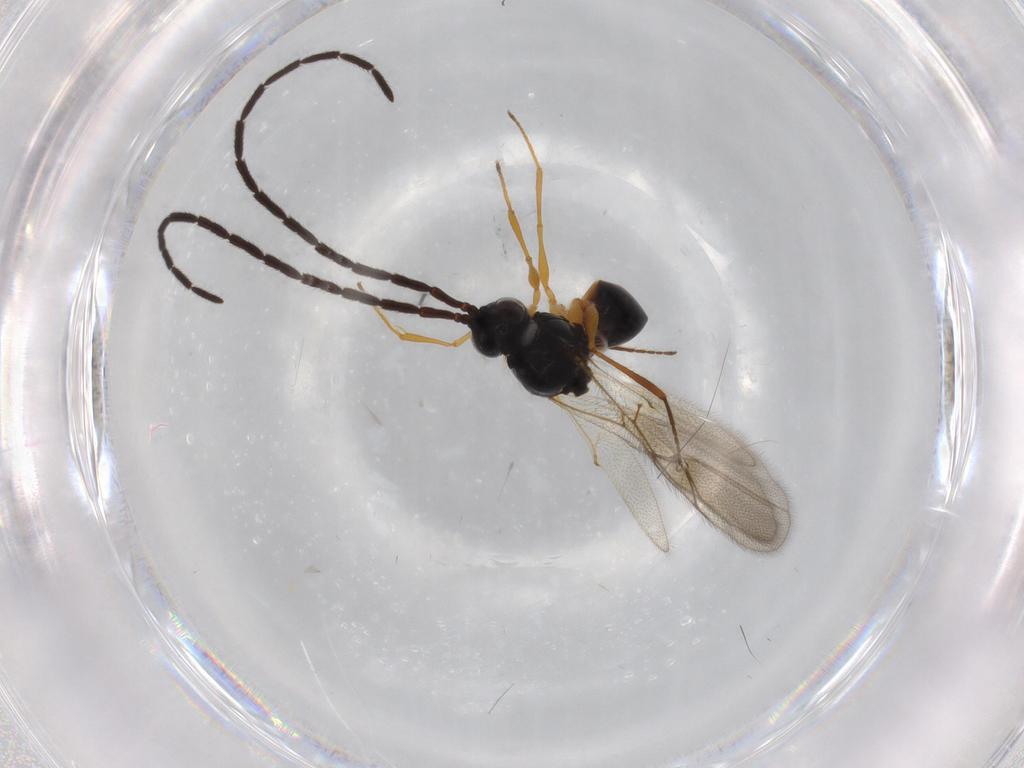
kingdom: Animalia
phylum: Arthropoda
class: Insecta
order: Hymenoptera
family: Figitidae
